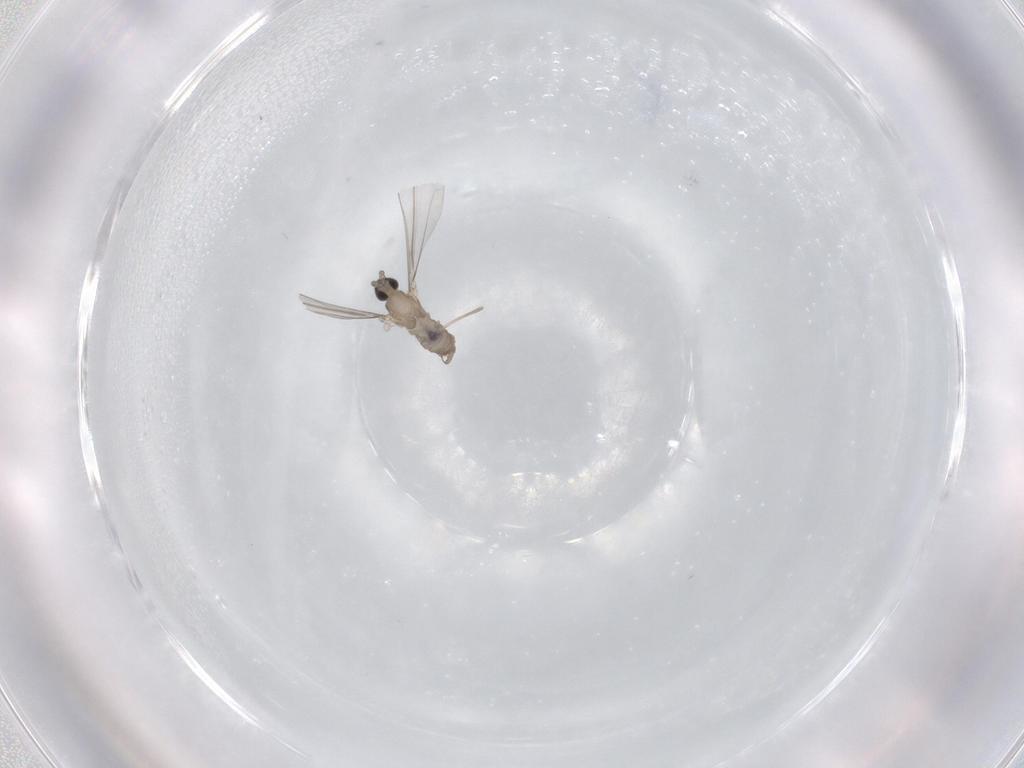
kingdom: Animalia
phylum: Arthropoda
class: Insecta
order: Diptera
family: Cecidomyiidae
